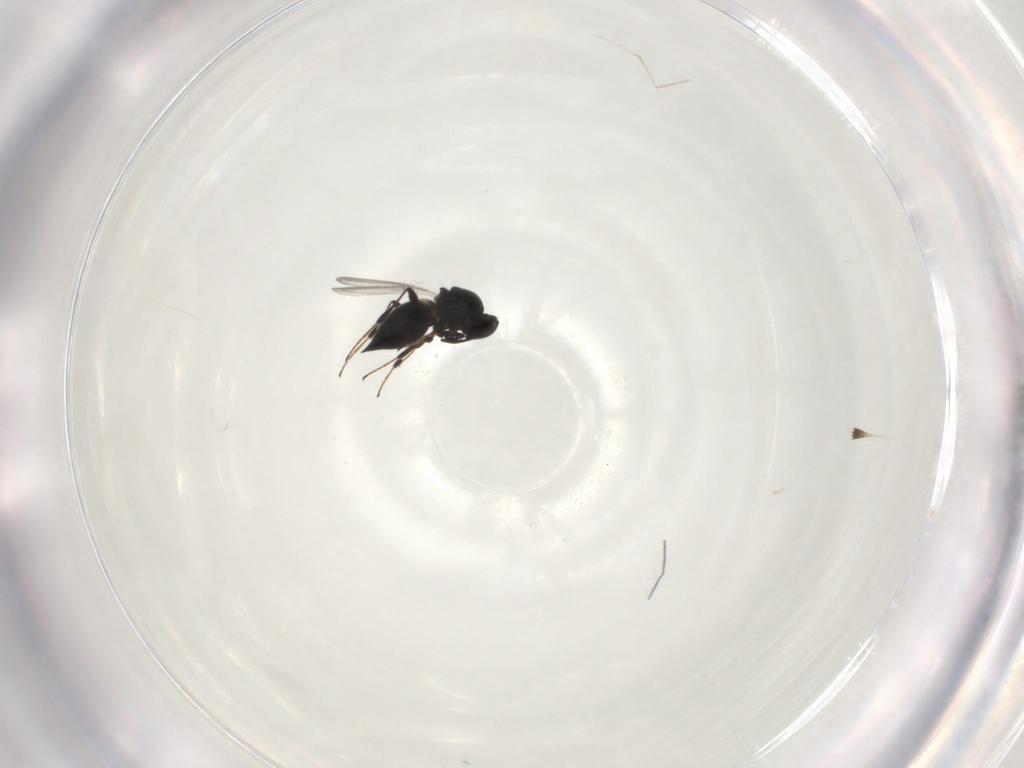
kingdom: Animalia
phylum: Arthropoda
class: Insecta
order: Hymenoptera
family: Platygastridae
